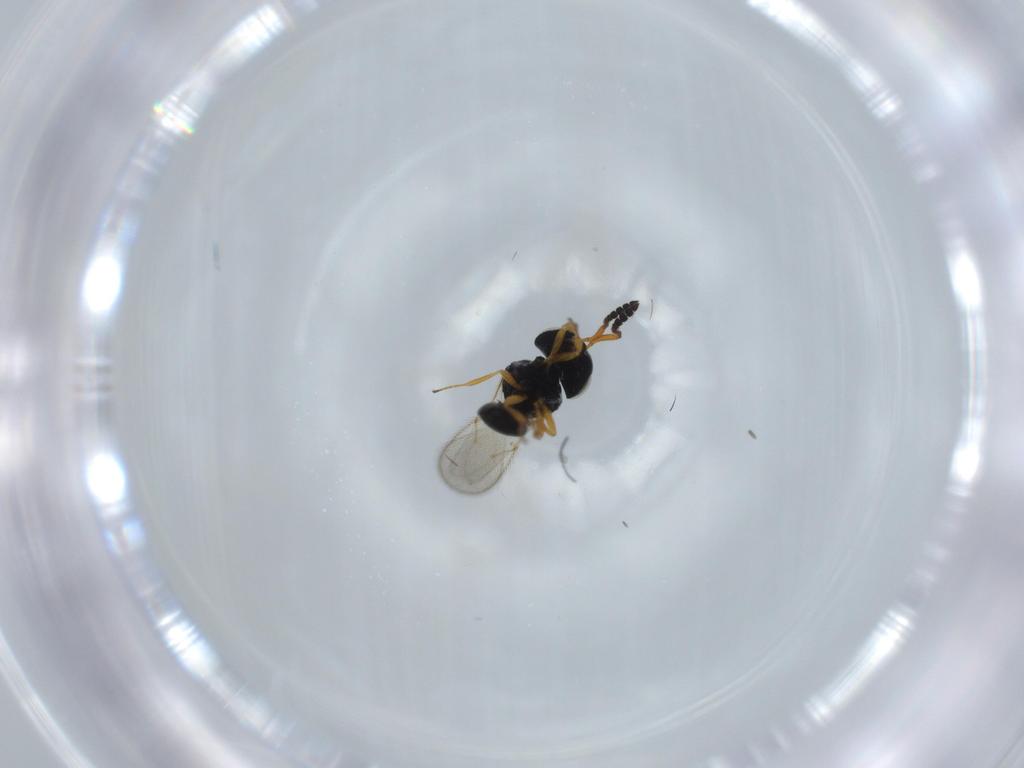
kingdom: Animalia
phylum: Arthropoda
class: Insecta
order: Hymenoptera
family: Scelionidae
